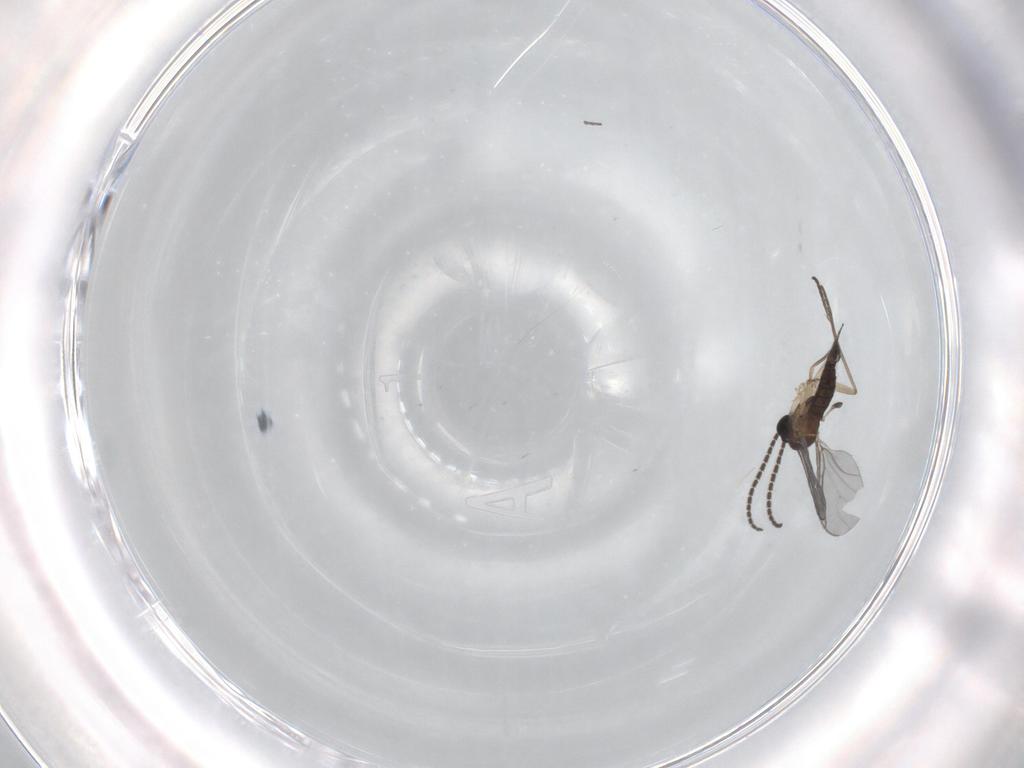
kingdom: Animalia
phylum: Arthropoda
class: Insecta
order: Diptera
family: Sciaridae
